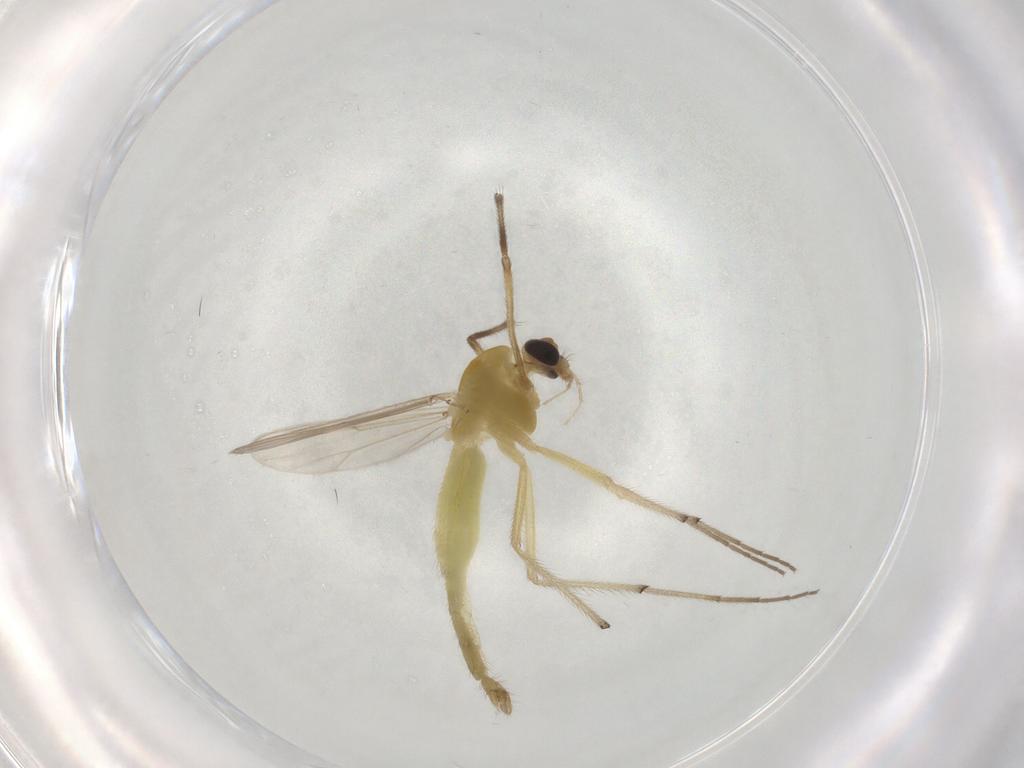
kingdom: Animalia
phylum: Arthropoda
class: Insecta
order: Diptera
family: Chironomidae
